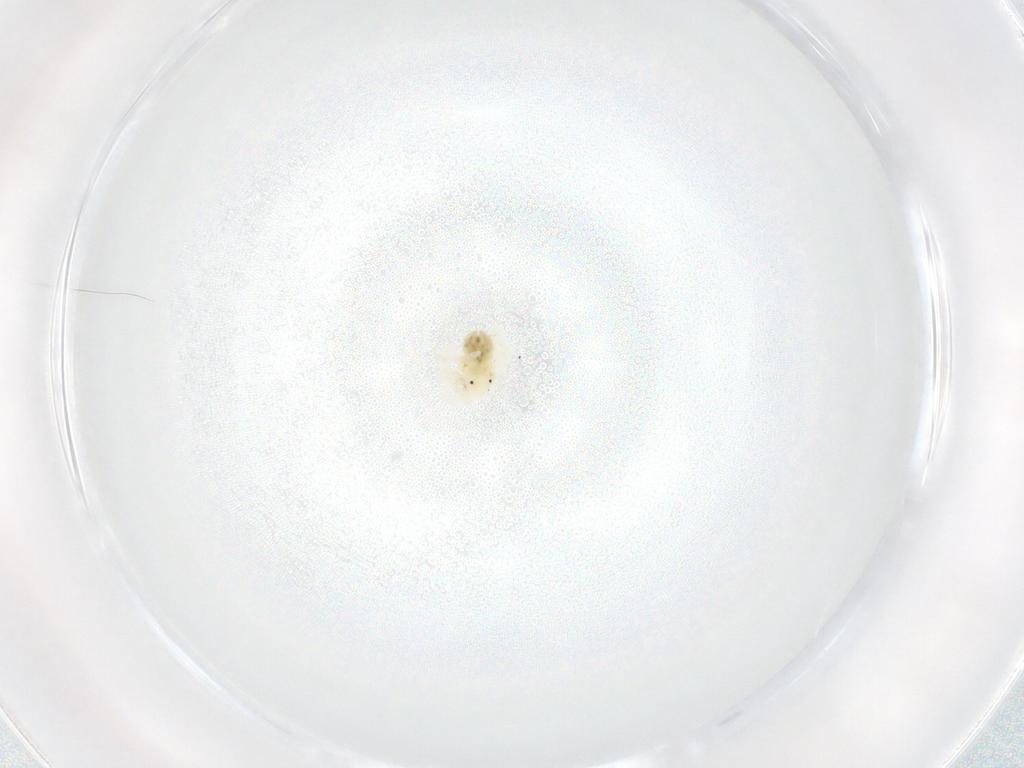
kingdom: Animalia
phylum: Arthropoda
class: Arachnida
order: Trombidiformes
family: Anystidae
